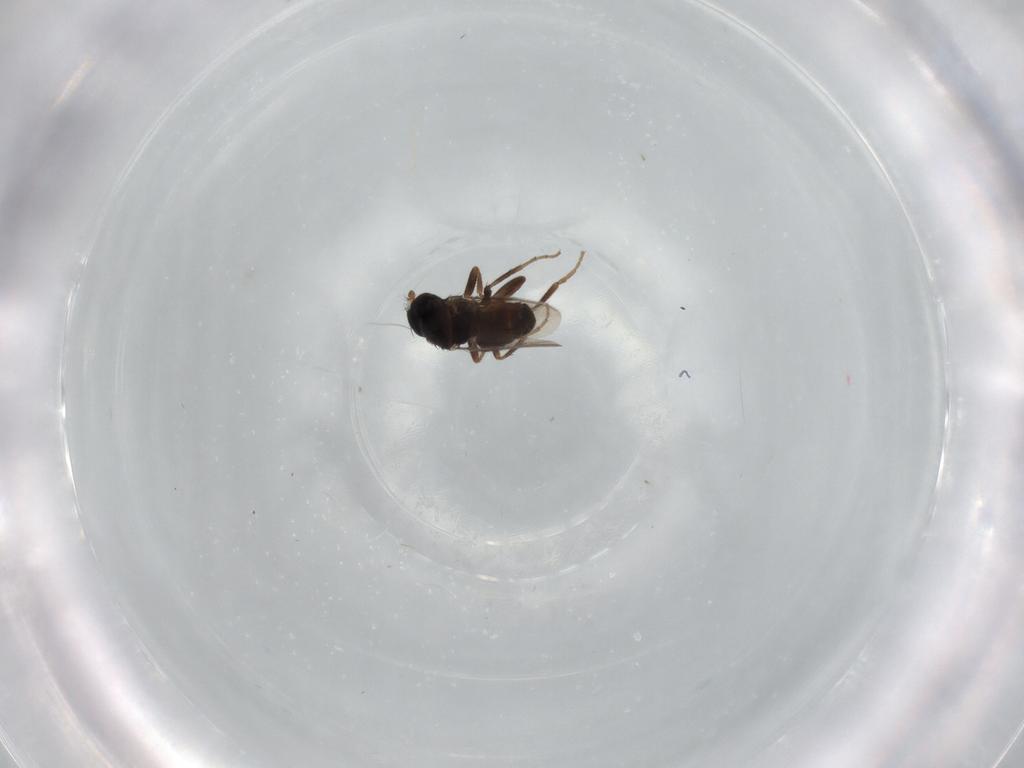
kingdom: Animalia
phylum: Arthropoda
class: Insecta
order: Diptera
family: Sphaeroceridae
